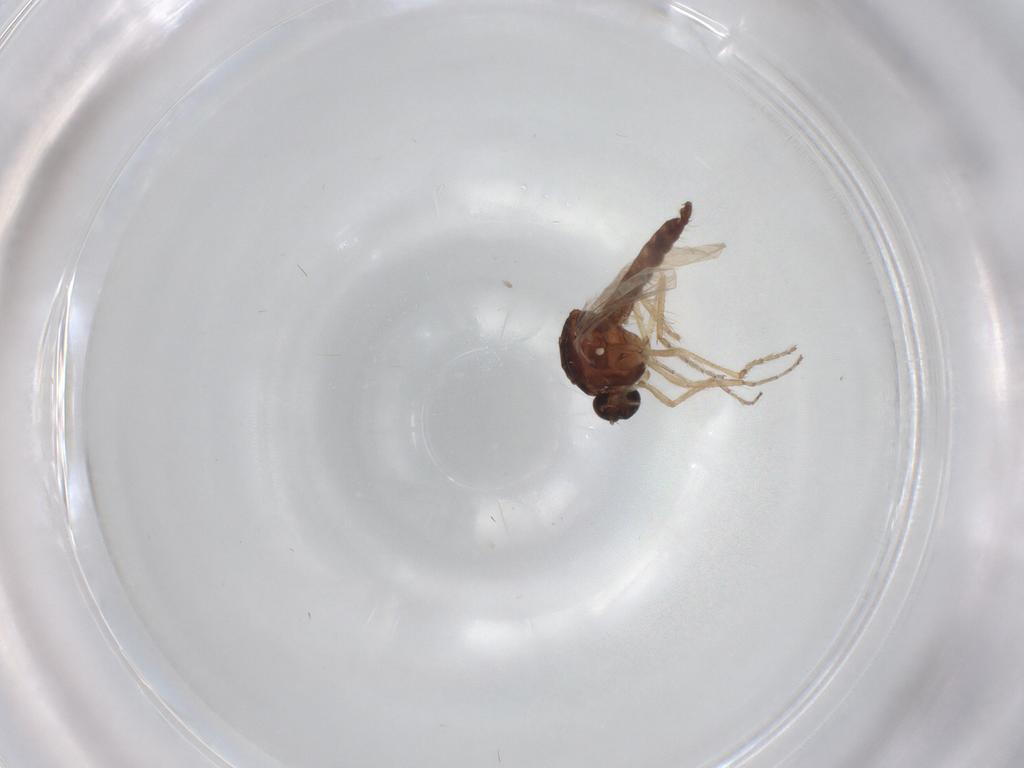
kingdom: Animalia
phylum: Arthropoda
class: Insecta
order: Diptera
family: Ceratopogonidae
